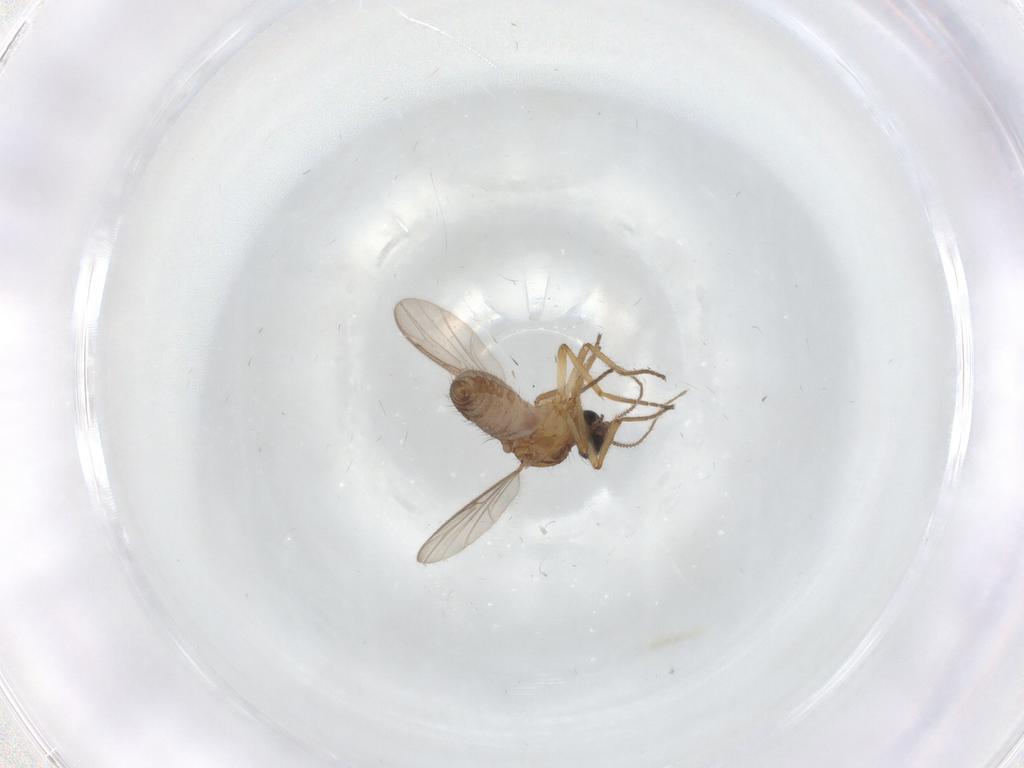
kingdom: Animalia
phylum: Arthropoda
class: Insecta
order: Diptera
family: Ceratopogonidae
